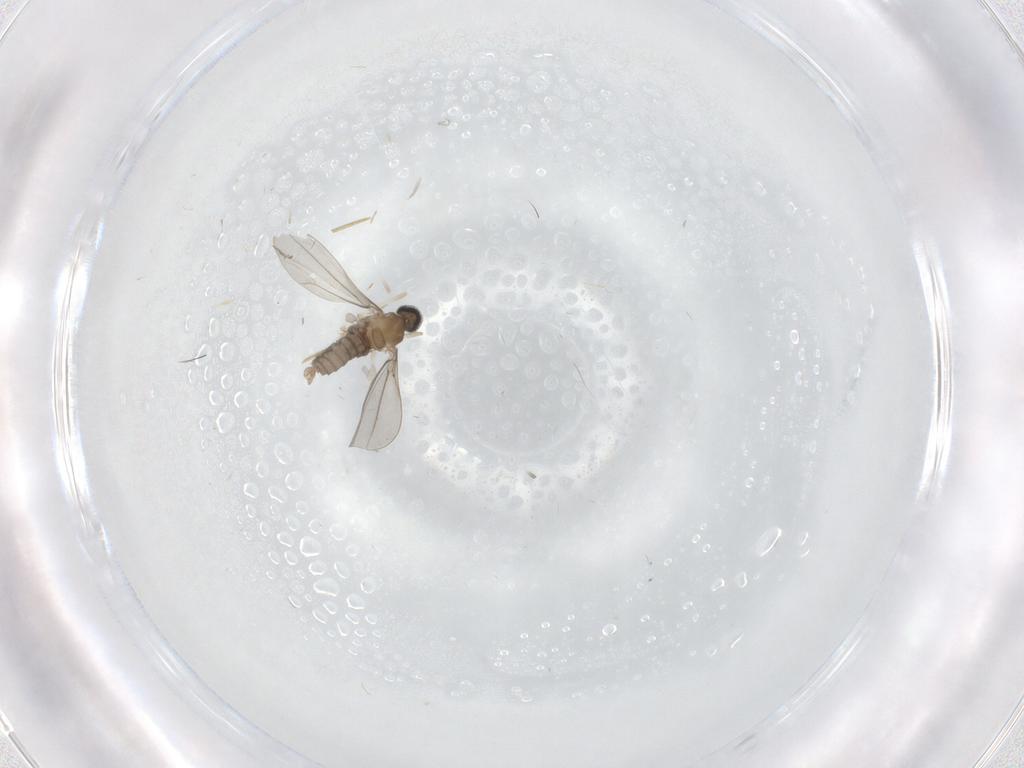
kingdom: Animalia
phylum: Arthropoda
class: Insecta
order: Diptera
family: Cecidomyiidae
